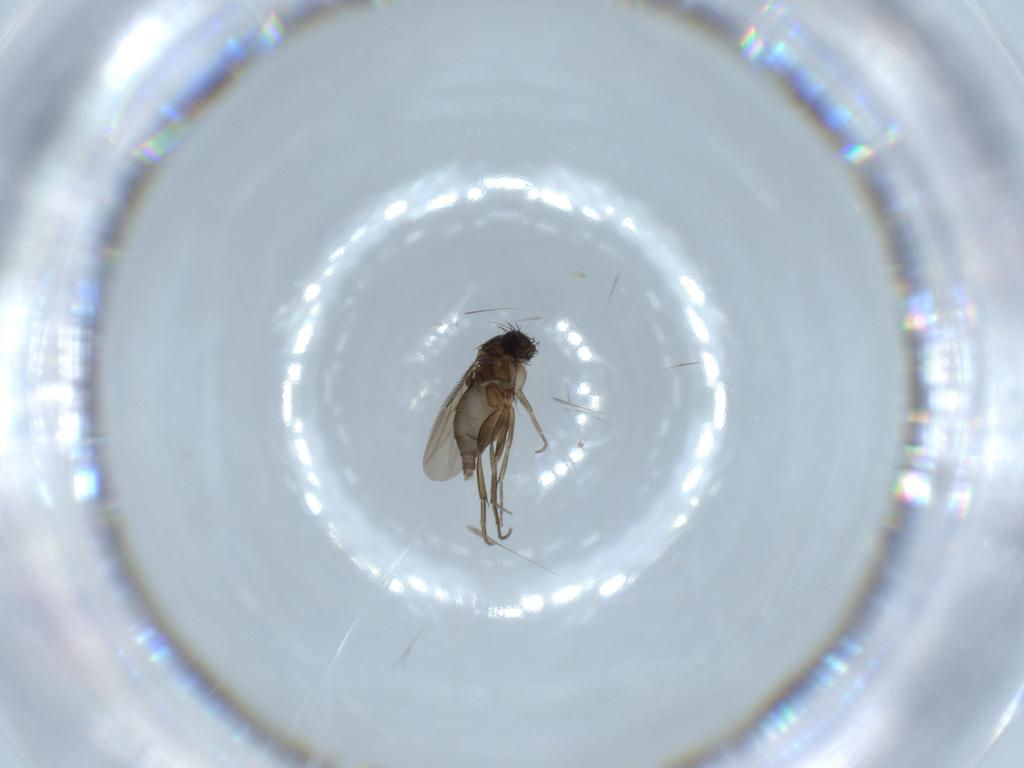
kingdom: Animalia
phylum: Arthropoda
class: Insecta
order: Diptera
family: Phoridae
